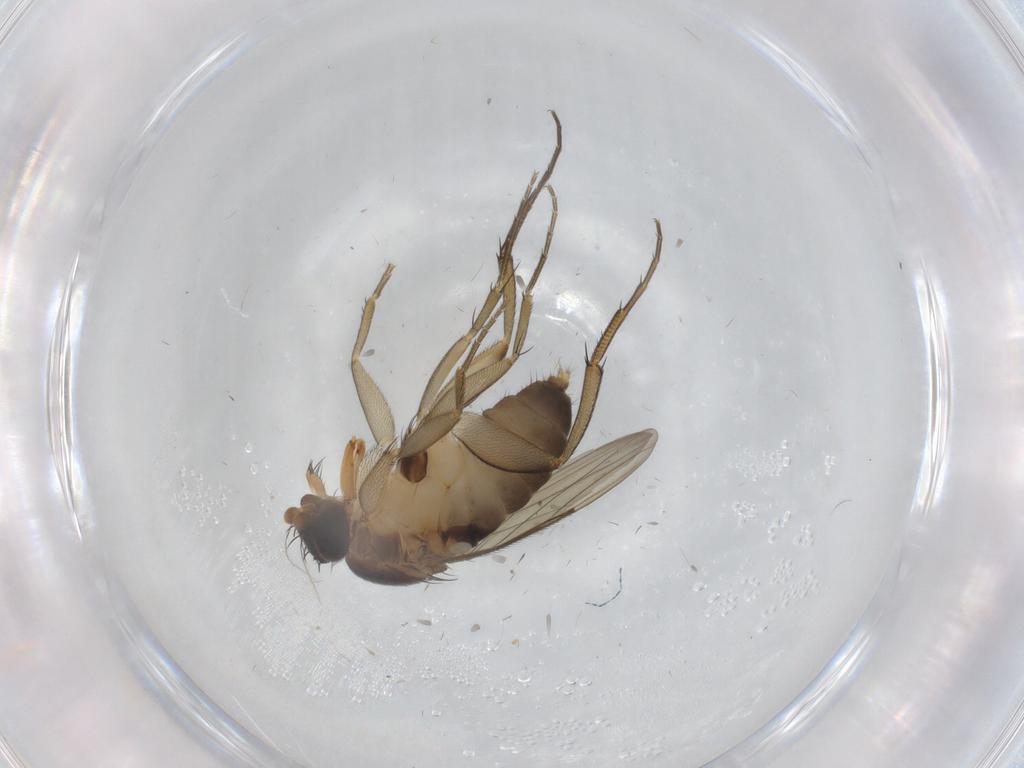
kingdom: Animalia
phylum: Arthropoda
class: Insecta
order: Diptera
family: Phoridae
